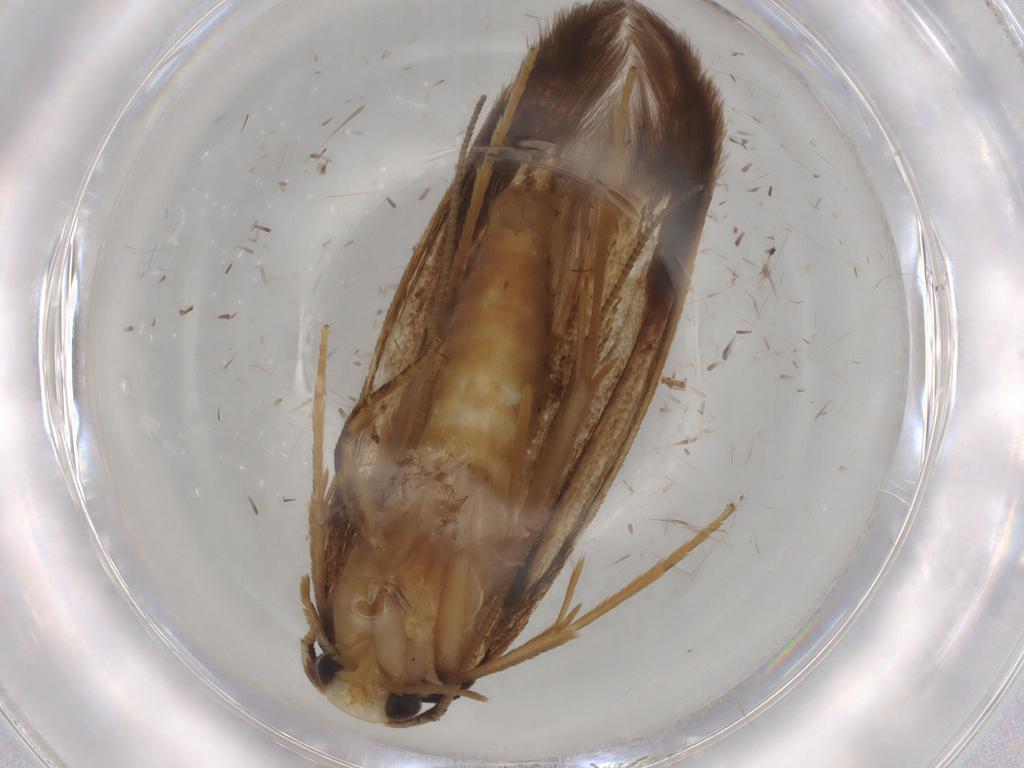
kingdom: Animalia
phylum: Arthropoda
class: Insecta
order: Lepidoptera
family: Tineidae
